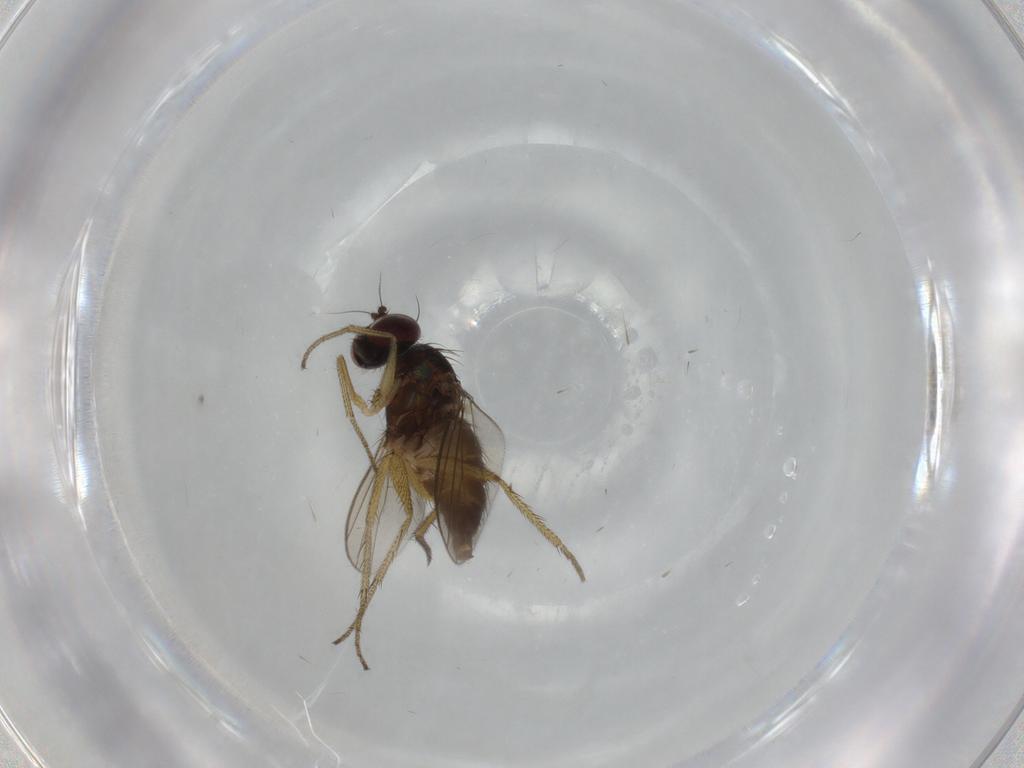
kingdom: Animalia
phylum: Arthropoda
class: Insecta
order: Diptera
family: Dolichopodidae
